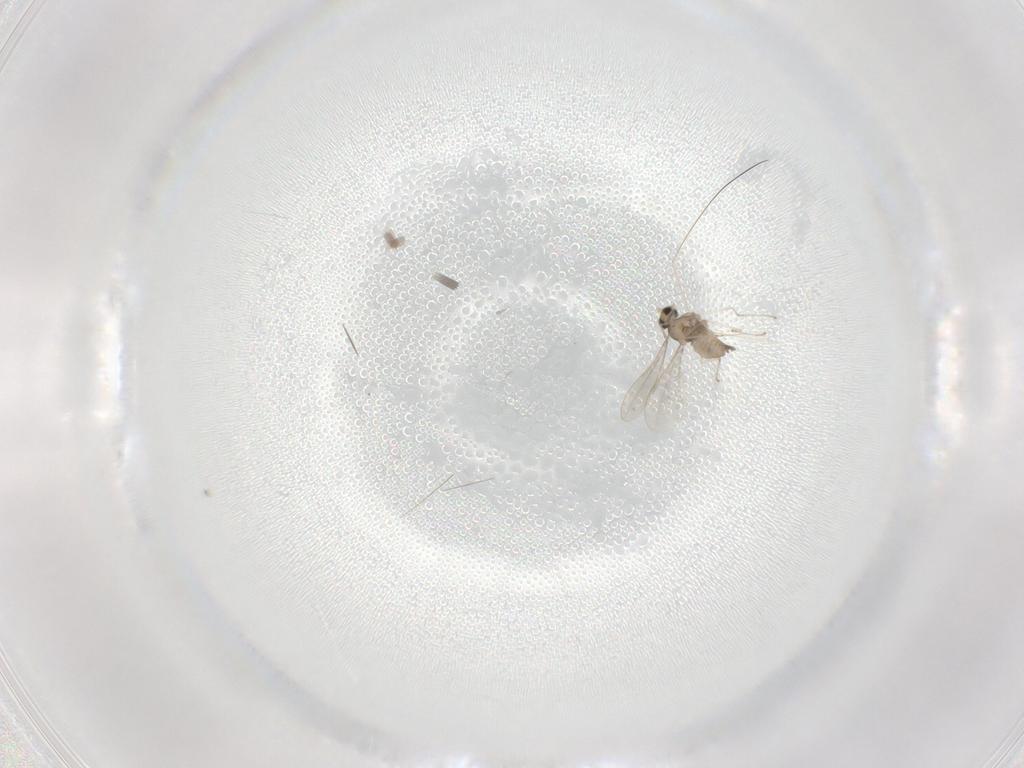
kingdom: Animalia
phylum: Arthropoda
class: Insecta
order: Diptera
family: Cecidomyiidae
